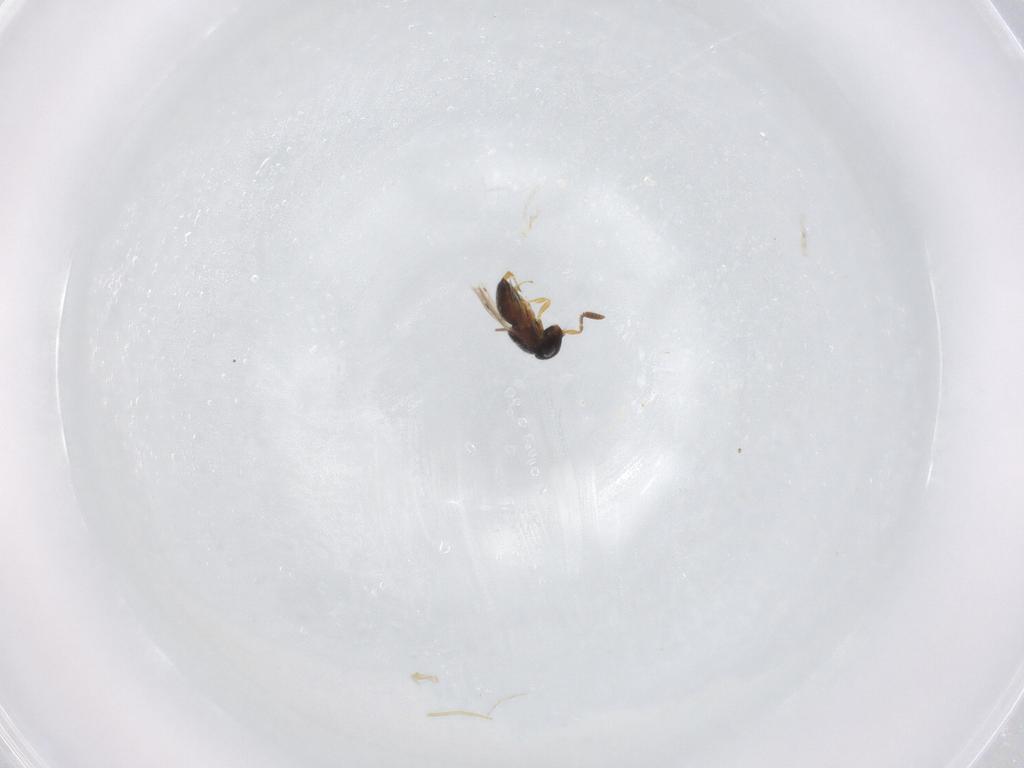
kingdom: Animalia
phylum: Arthropoda
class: Insecta
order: Hymenoptera
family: Scelionidae
